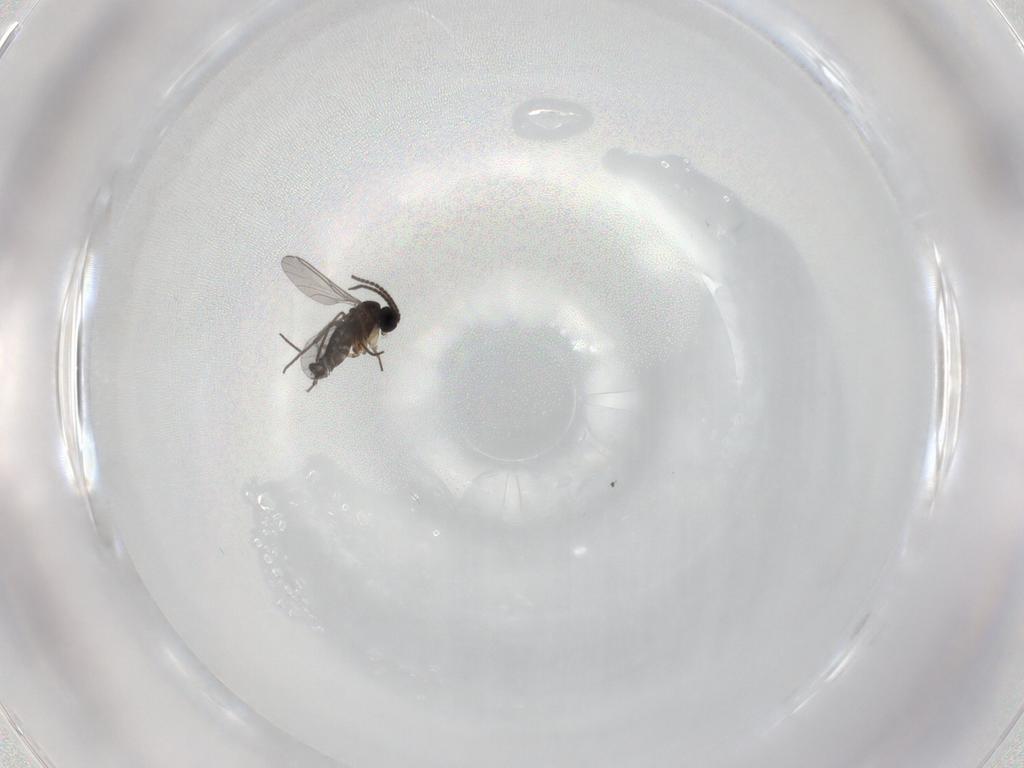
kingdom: Animalia
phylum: Arthropoda
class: Insecta
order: Diptera
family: Sciaridae
